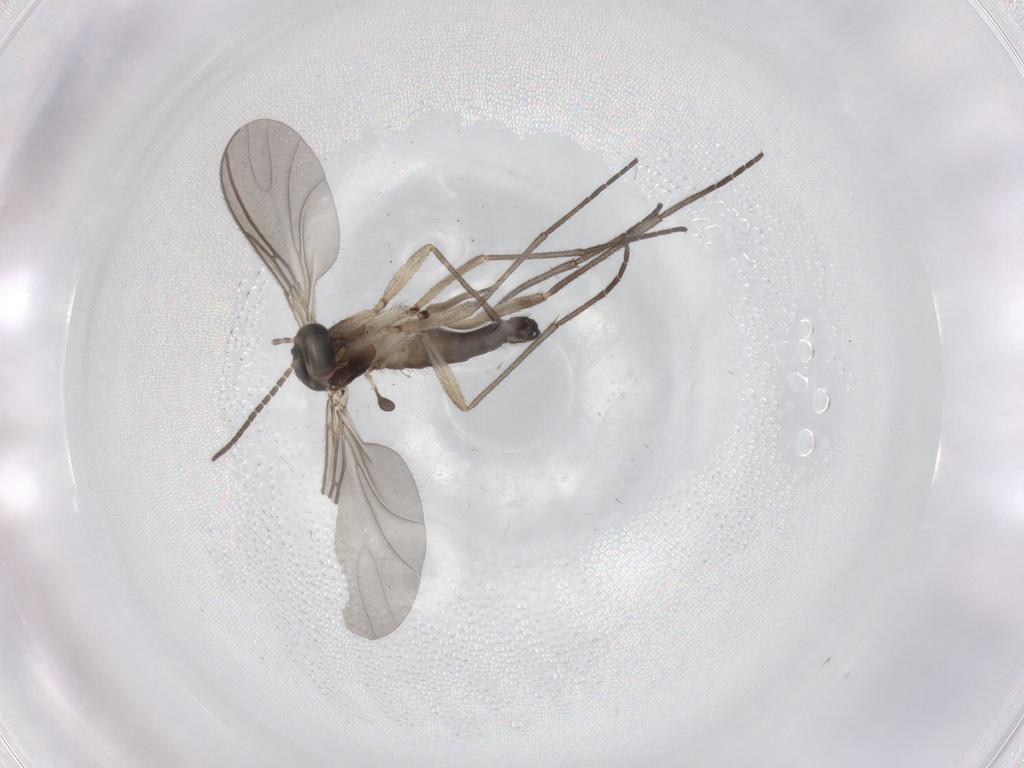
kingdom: Animalia
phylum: Arthropoda
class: Insecta
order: Diptera
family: Sciaridae
